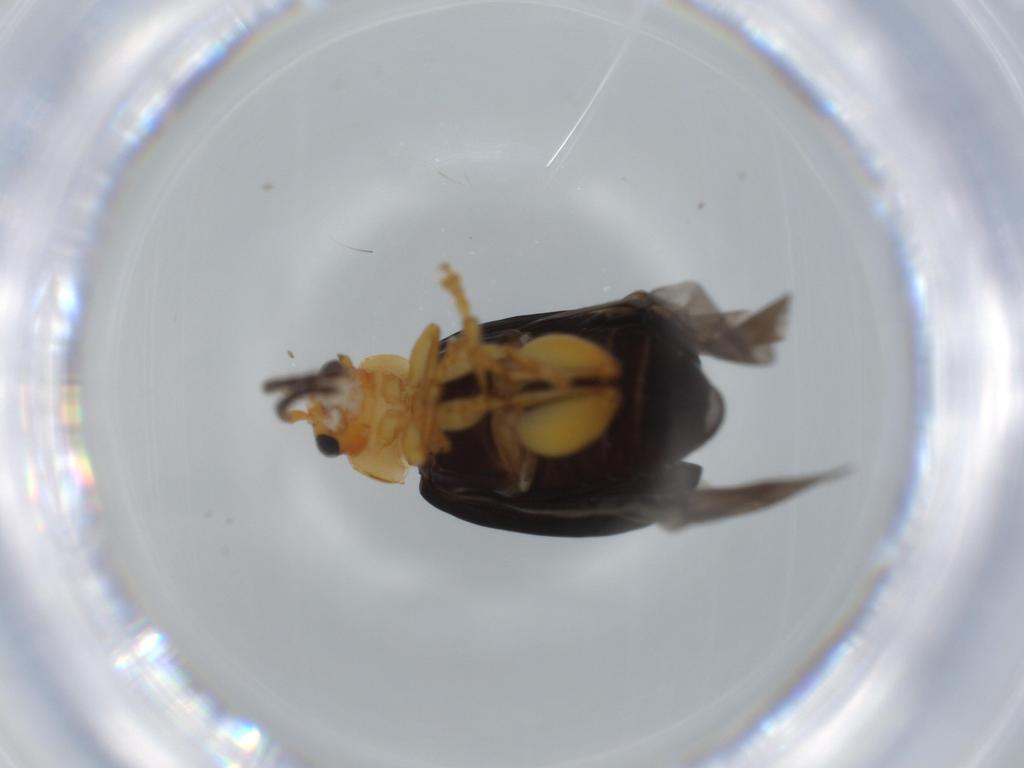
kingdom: Animalia
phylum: Arthropoda
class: Insecta
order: Coleoptera
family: Chrysomelidae
